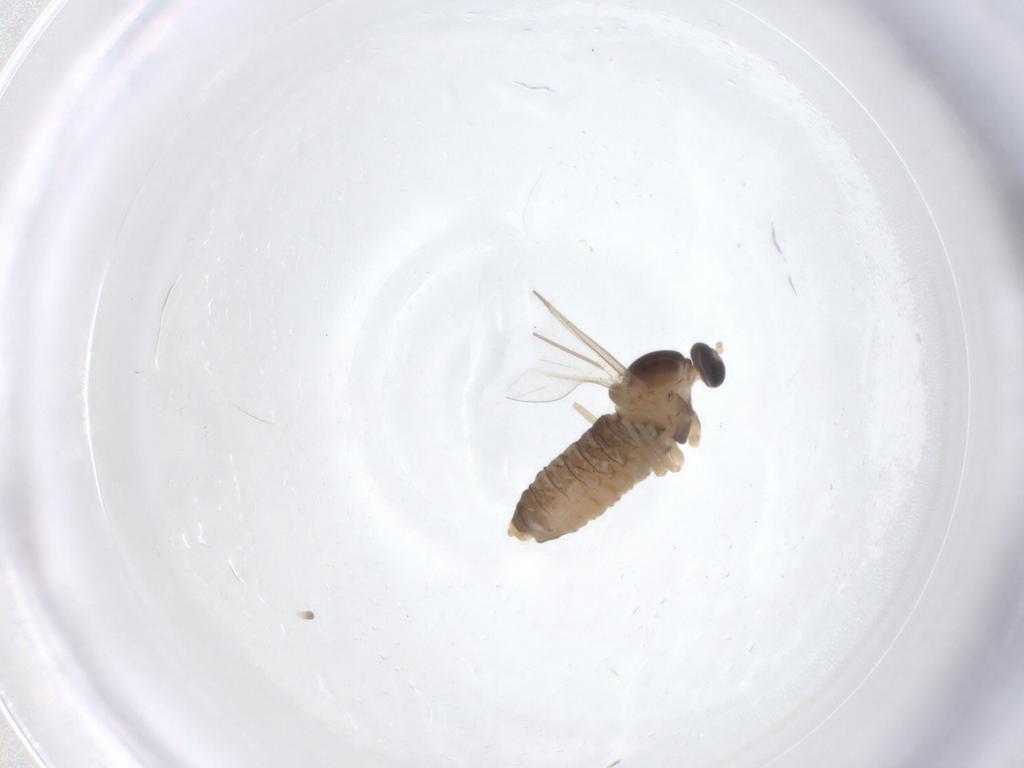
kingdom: Animalia
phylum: Arthropoda
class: Insecta
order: Diptera
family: Cecidomyiidae
